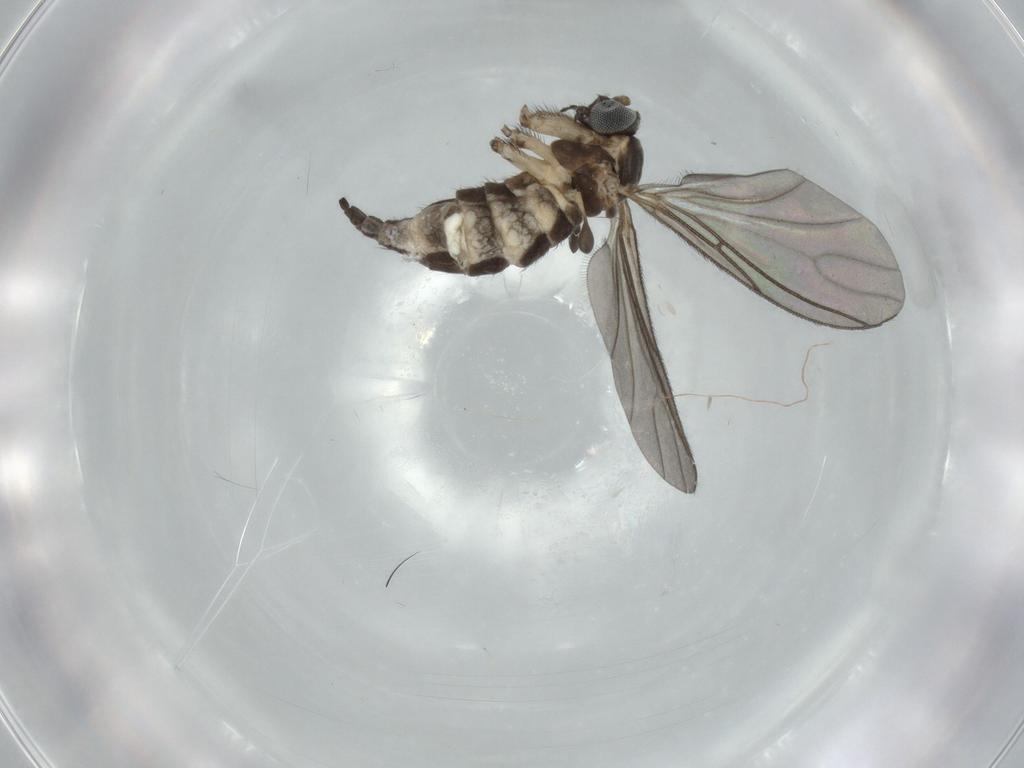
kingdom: Animalia
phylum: Arthropoda
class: Insecta
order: Diptera
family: Sciaridae
